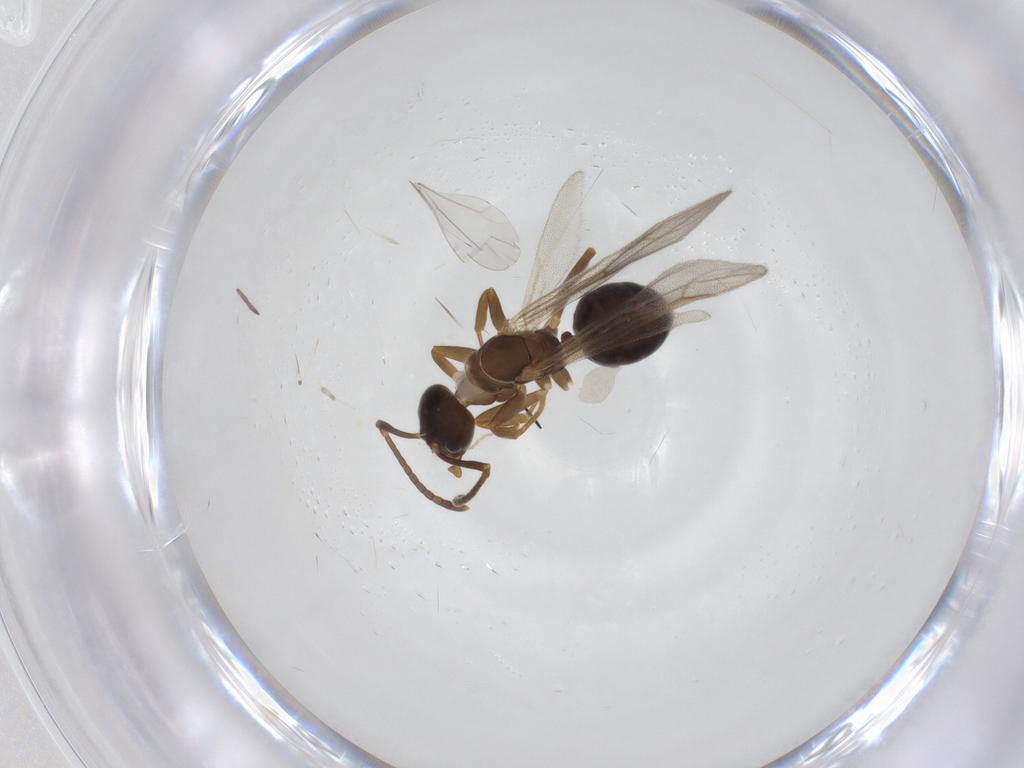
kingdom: Animalia
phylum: Arthropoda
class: Insecta
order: Hymenoptera
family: Formicidae
